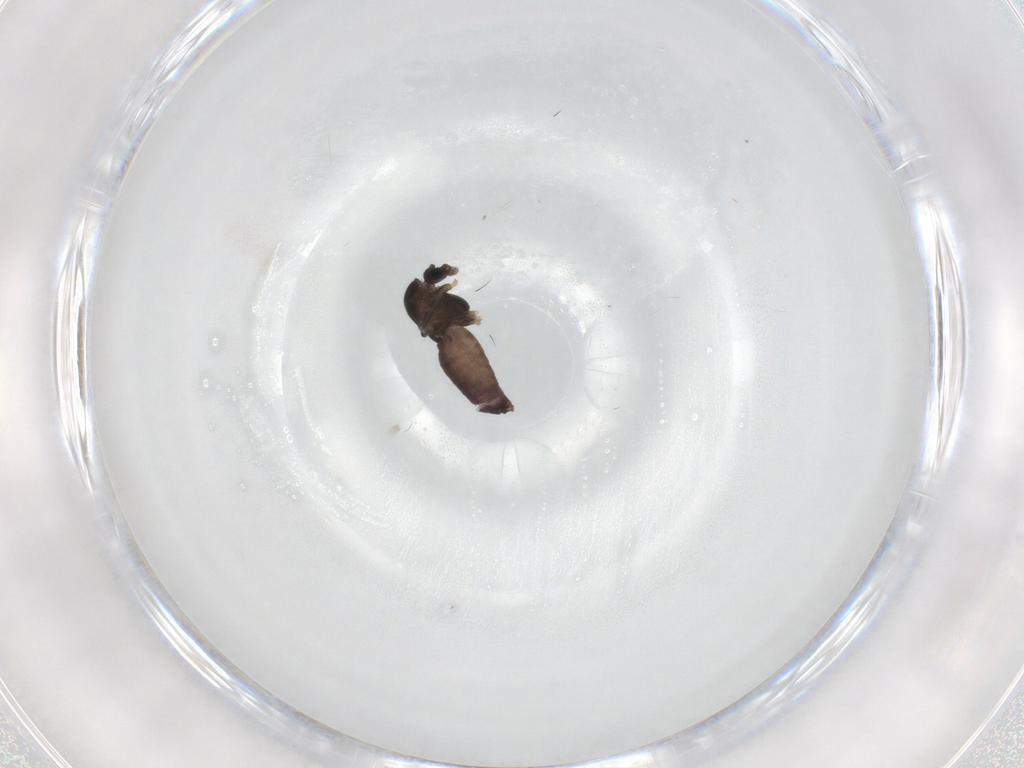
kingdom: Animalia
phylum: Arthropoda
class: Insecta
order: Diptera
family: Chironomidae
